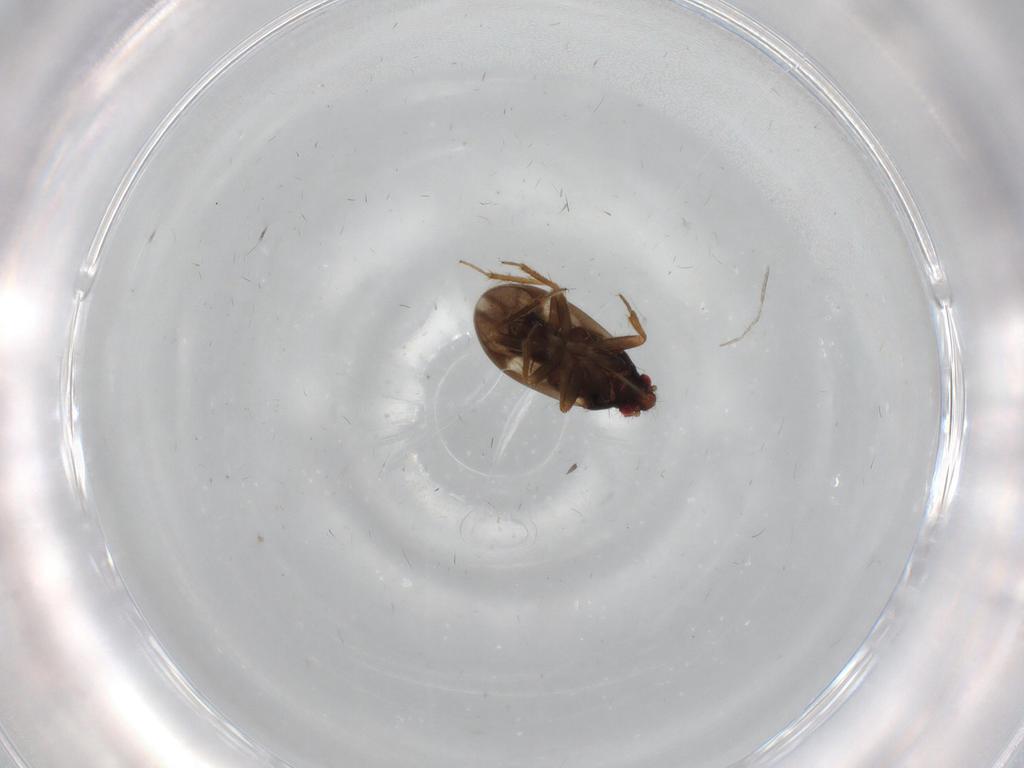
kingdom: Animalia
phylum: Arthropoda
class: Insecta
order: Hemiptera
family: Ceratocombidae
